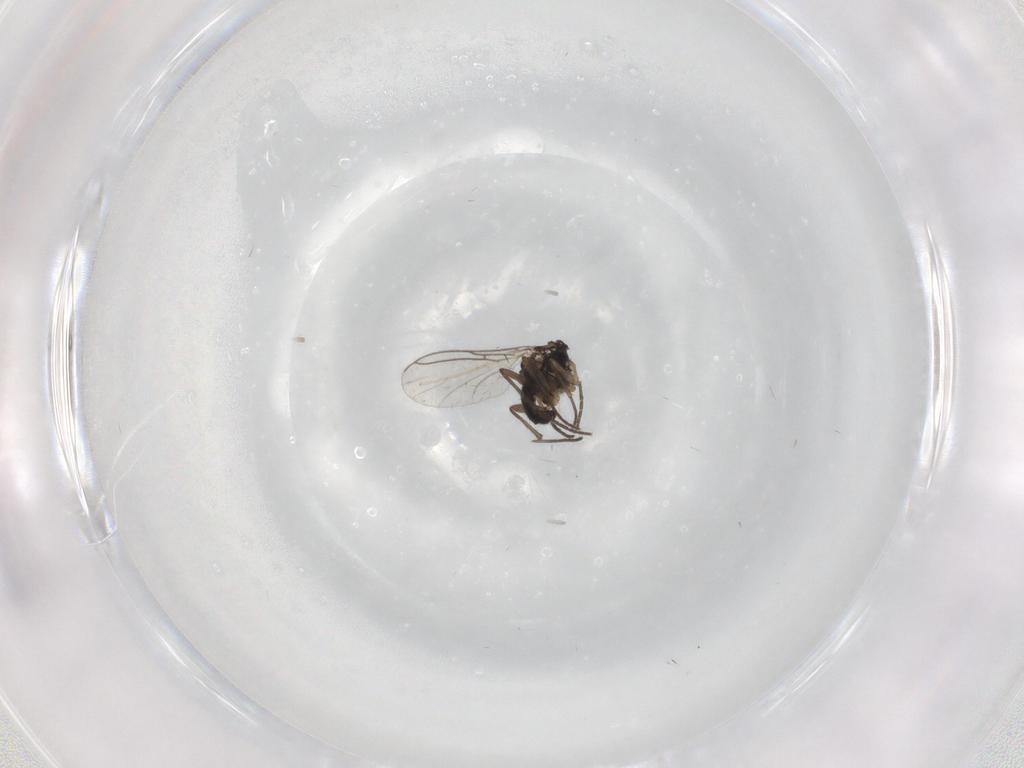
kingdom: Animalia
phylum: Arthropoda
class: Insecta
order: Diptera
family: Sciaridae
